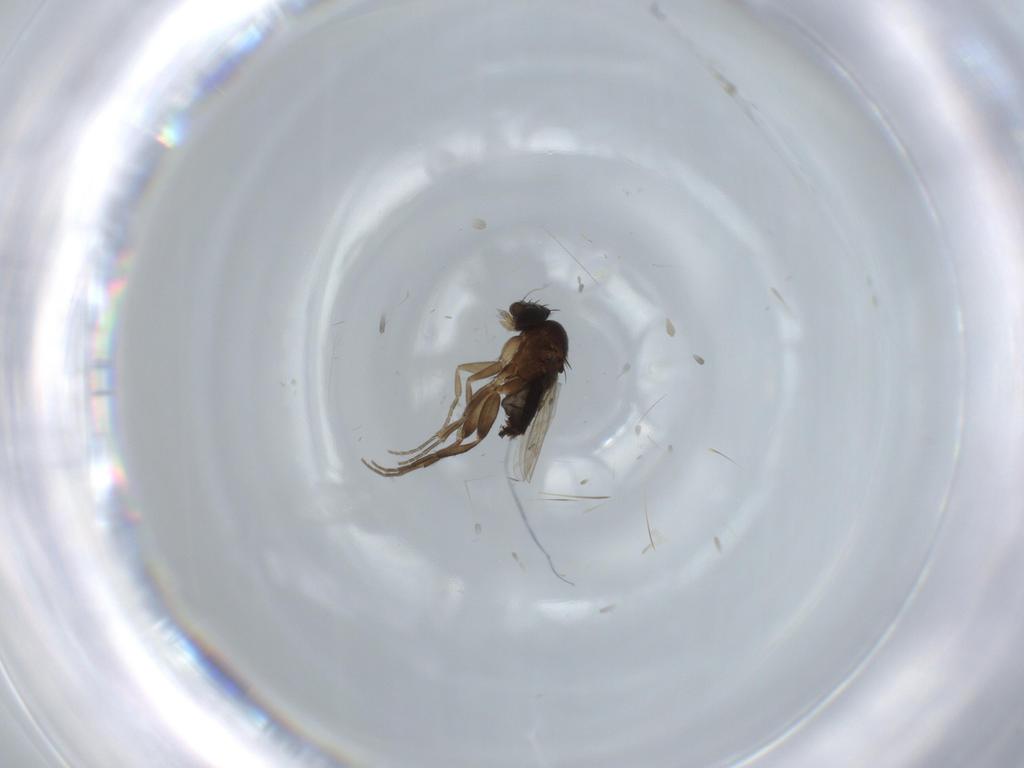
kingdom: Animalia
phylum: Arthropoda
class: Insecta
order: Diptera
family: Phoridae
